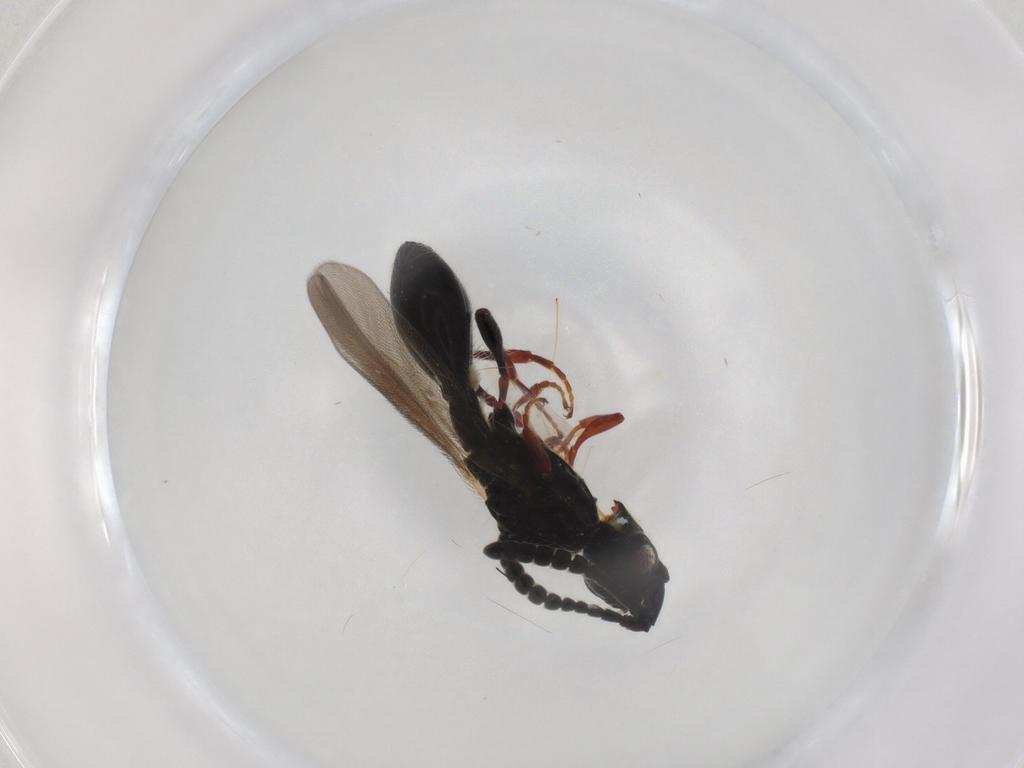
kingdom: Animalia
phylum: Arthropoda
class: Insecta
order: Hymenoptera
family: Diapriidae
